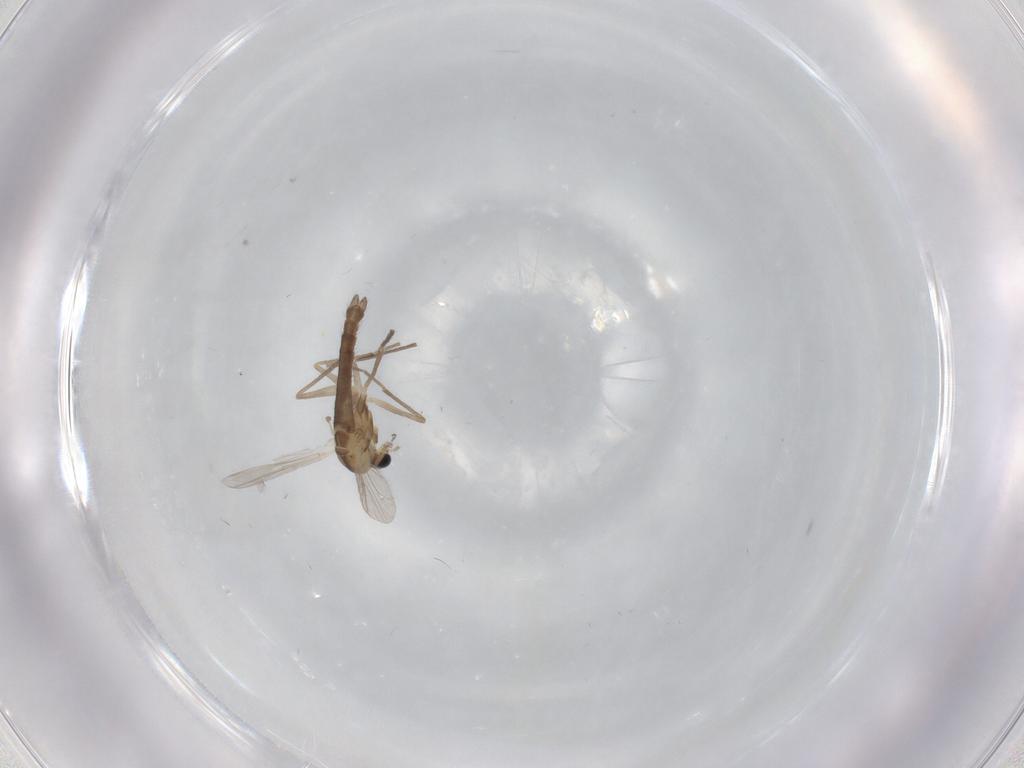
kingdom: Animalia
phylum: Arthropoda
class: Insecta
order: Diptera
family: Chironomidae
